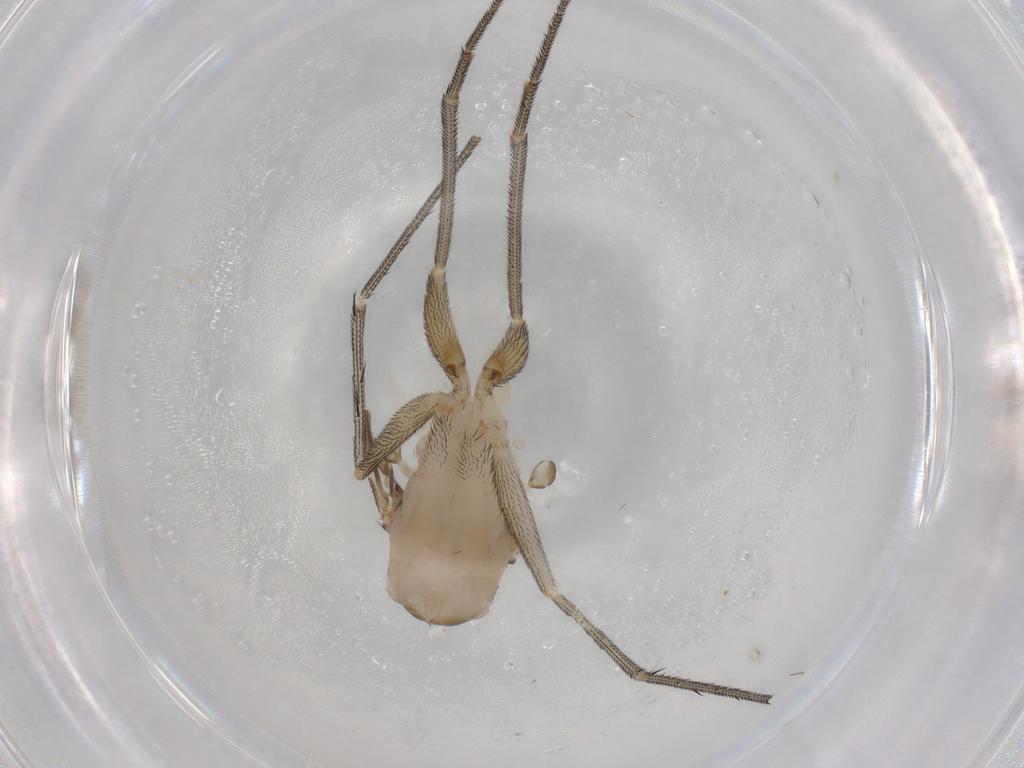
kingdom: Animalia
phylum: Arthropoda
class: Insecta
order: Diptera
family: Dolichopodidae
